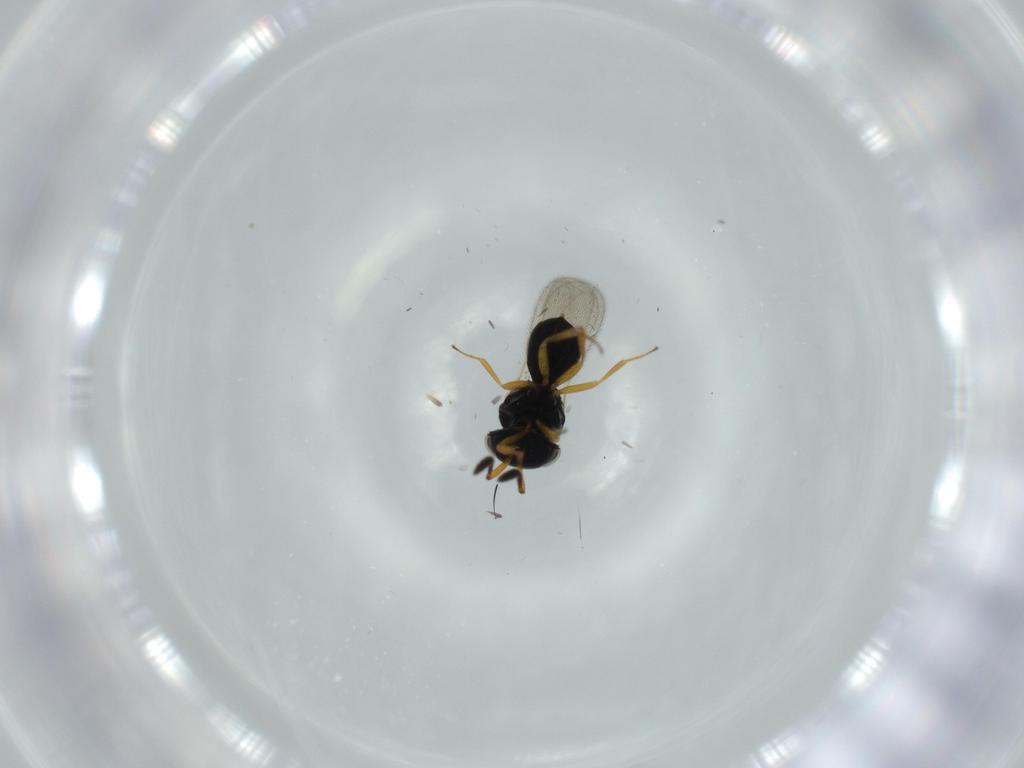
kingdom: Animalia
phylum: Arthropoda
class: Insecta
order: Hymenoptera
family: Scelionidae
